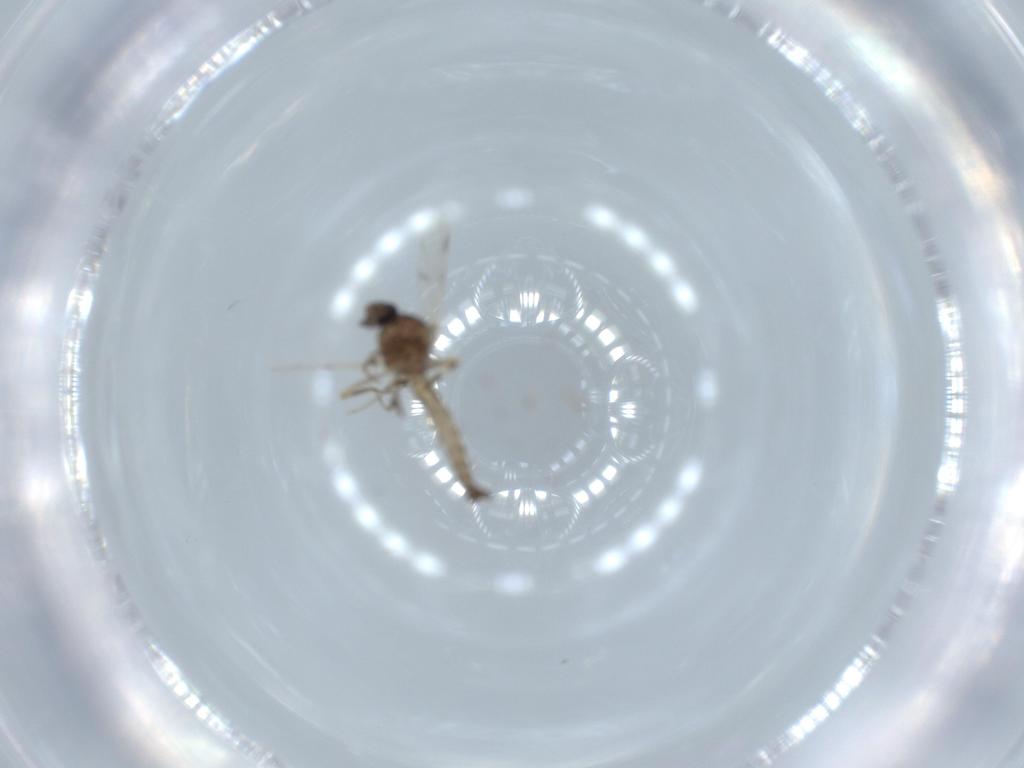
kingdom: Animalia
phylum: Arthropoda
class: Insecta
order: Diptera
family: Ceratopogonidae
